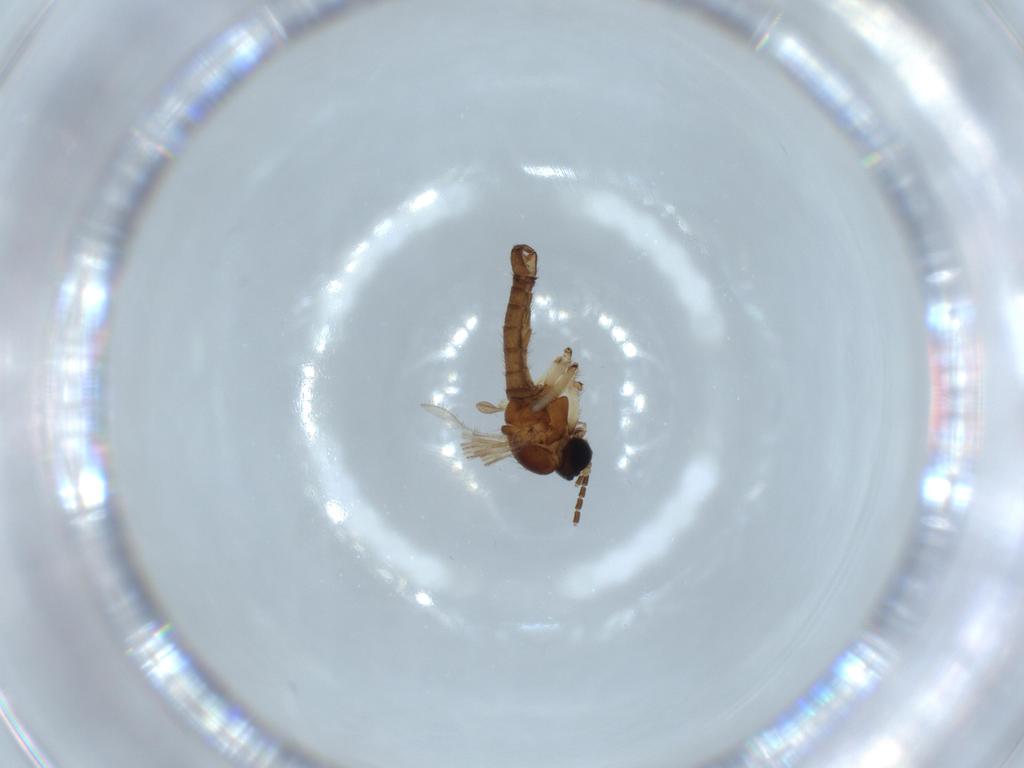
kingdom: Animalia
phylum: Arthropoda
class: Insecta
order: Diptera
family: Sciaridae
